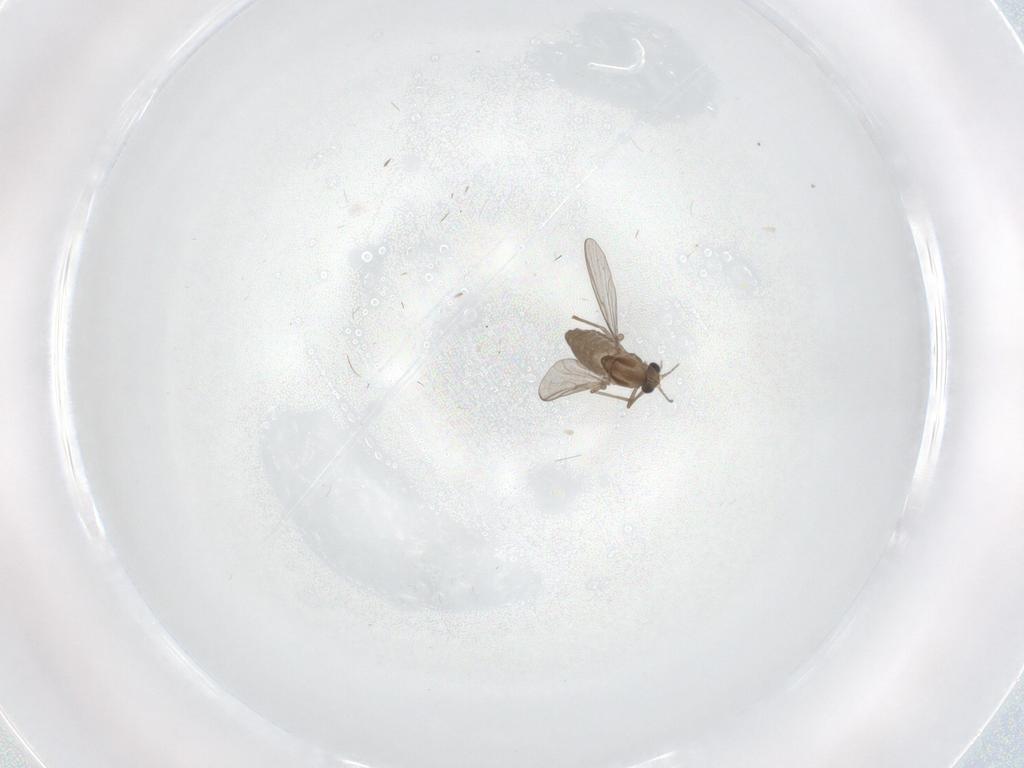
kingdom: Animalia
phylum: Arthropoda
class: Insecta
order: Diptera
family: Chironomidae
